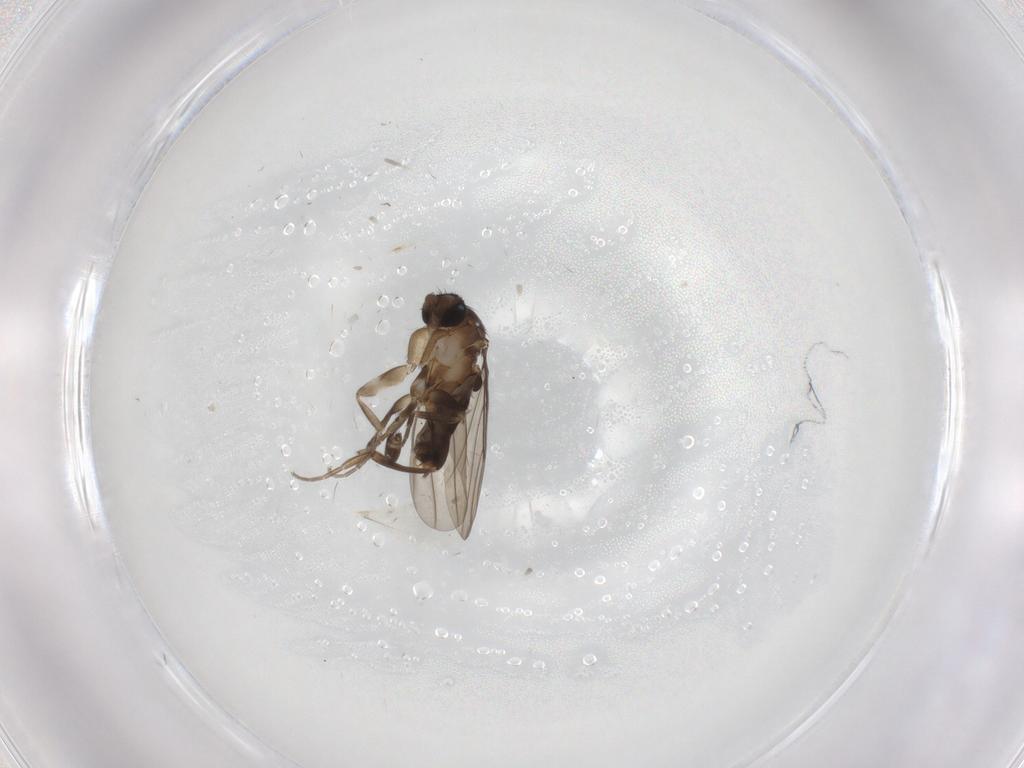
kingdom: Animalia
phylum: Arthropoda
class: Insecta
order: Diptera
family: Phoridae
